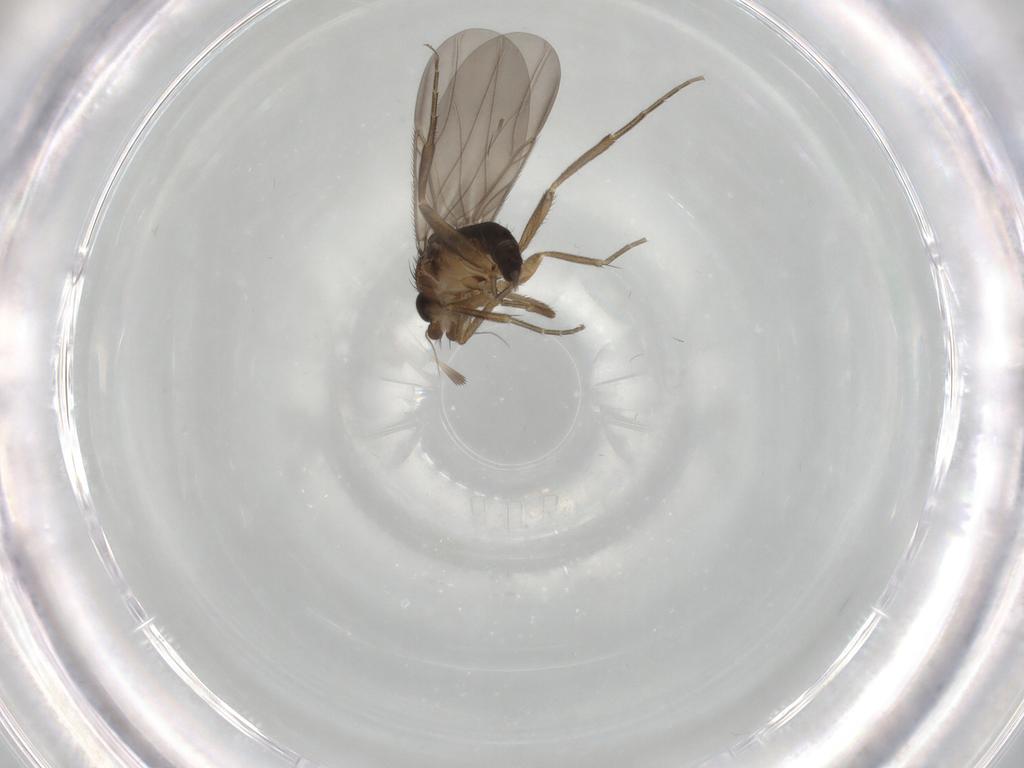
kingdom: Animalia
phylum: Arthropoda
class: Insecta
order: Diptera
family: Phoridae
